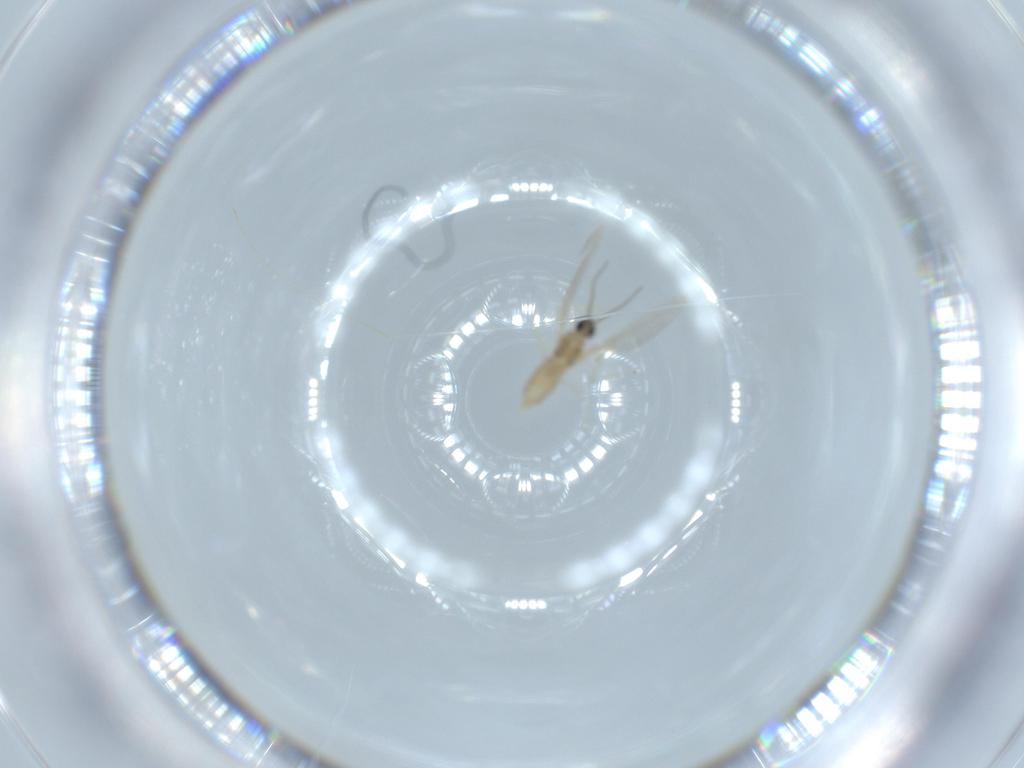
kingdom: Animalia
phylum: Arthropoda
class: Insecta
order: Diptera
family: Cecidomyiidae
